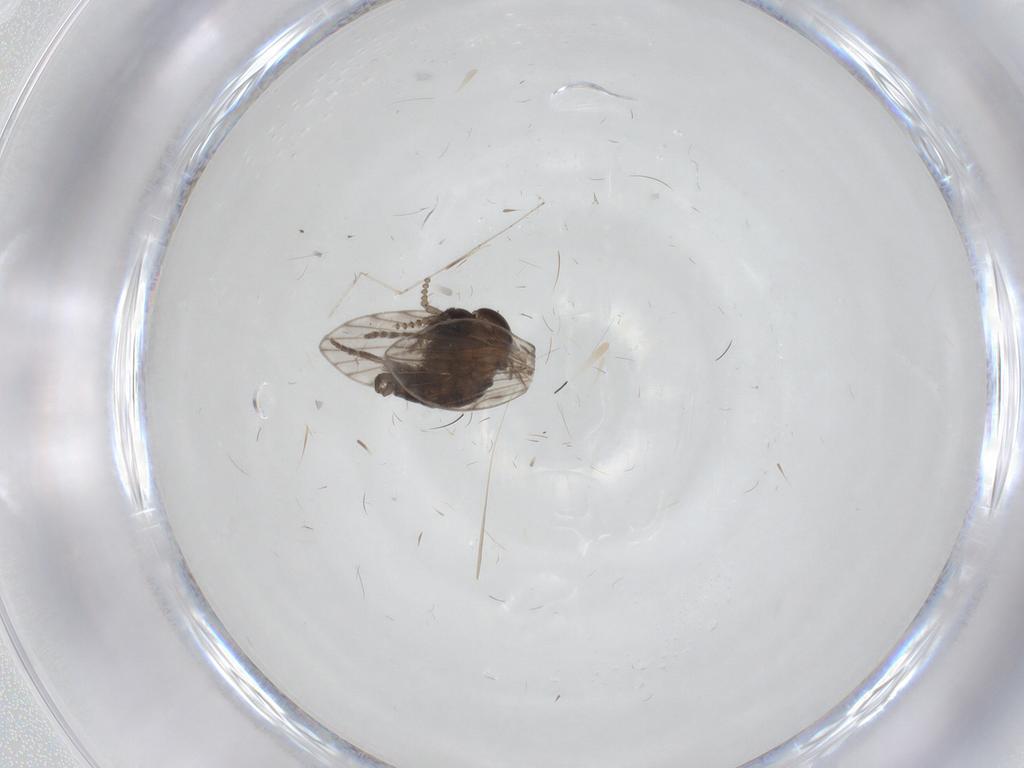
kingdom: Animalia
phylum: Arthropoda
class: Insecta
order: Diptera
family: Psychodidae
